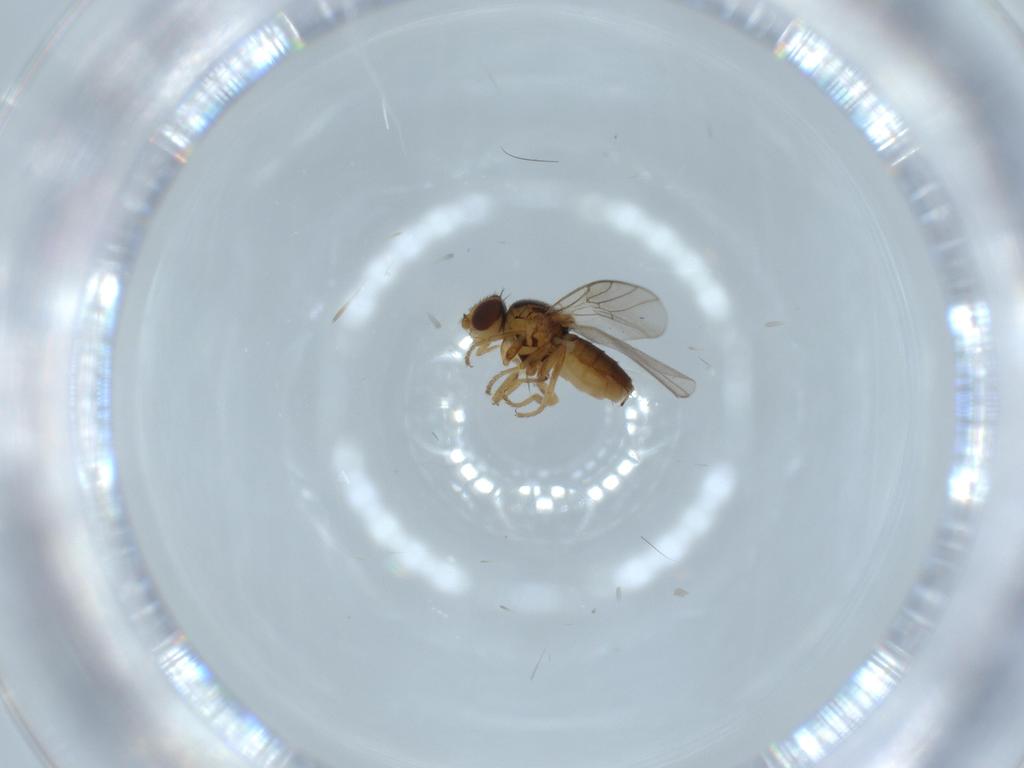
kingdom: Animalia
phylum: Arthropoda
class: Insecta
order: Diptera
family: Chloropidae
